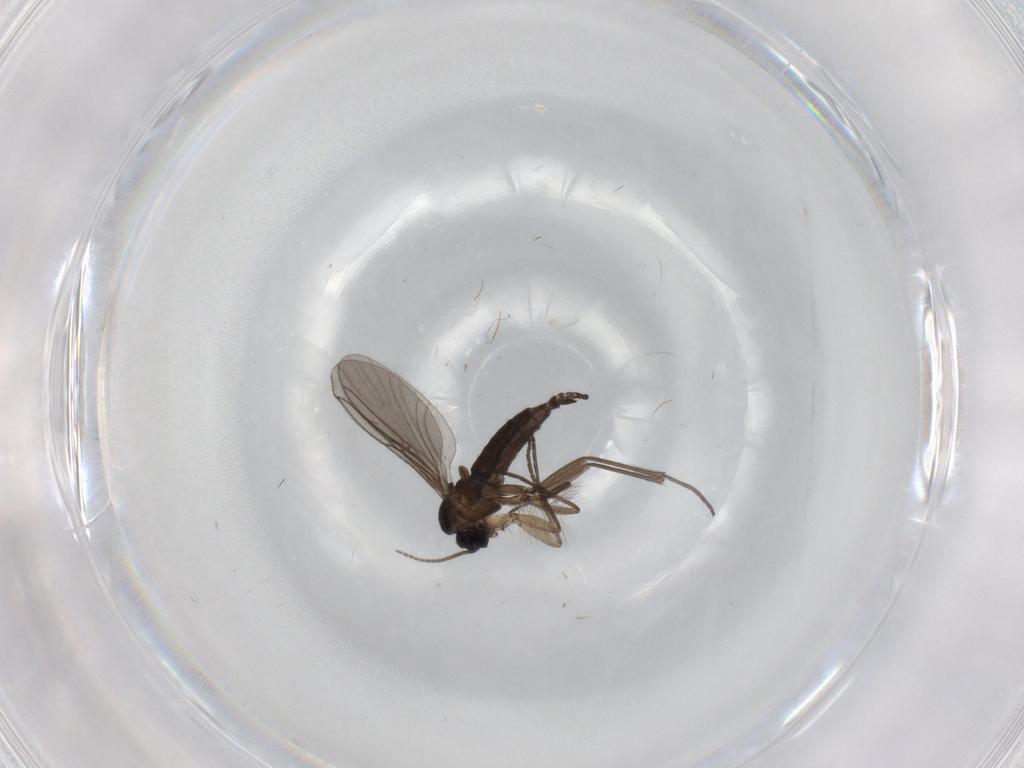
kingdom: Animalia
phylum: Arthropoda
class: Insecta
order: Diptera
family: Sciaridae
